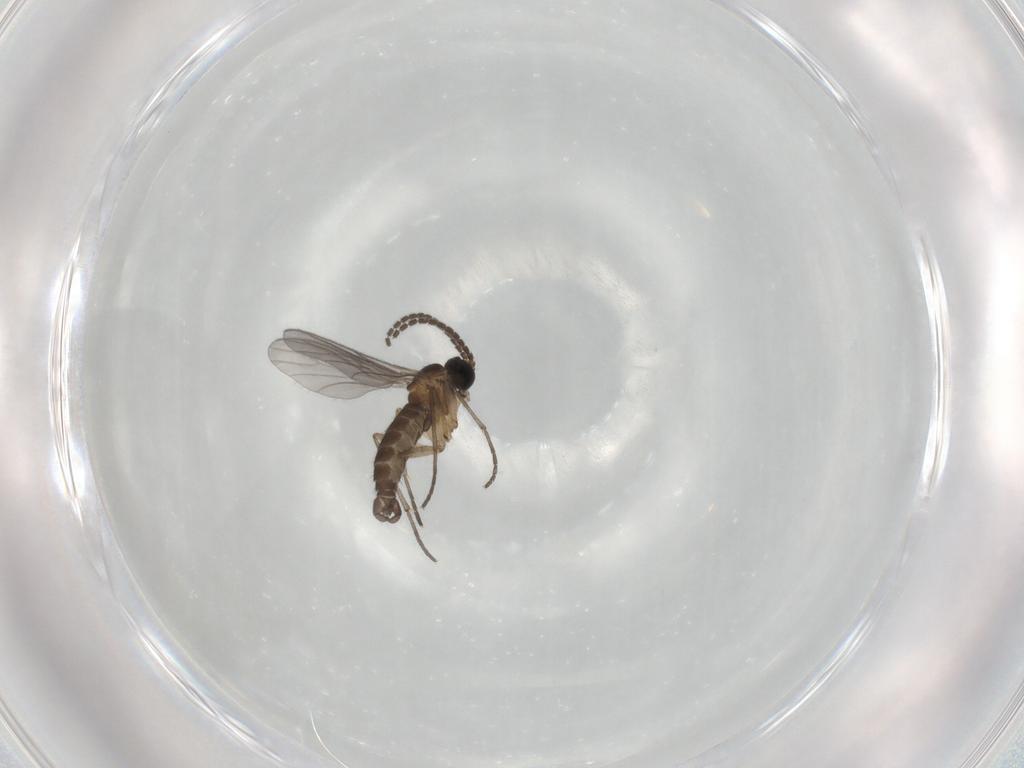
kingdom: Animalia
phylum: Arthropoda
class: Insecta
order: Diptera
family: Sciaridae
